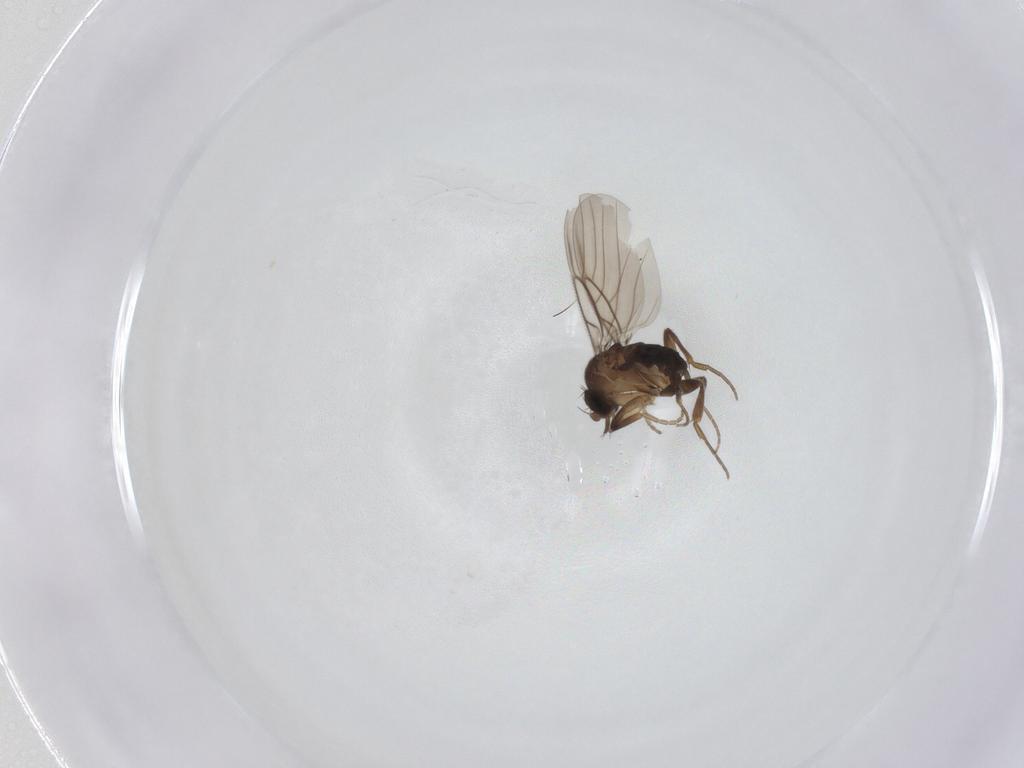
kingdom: Animalia
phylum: Arthropoda
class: Insecta
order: Diptera
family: Phoridae
